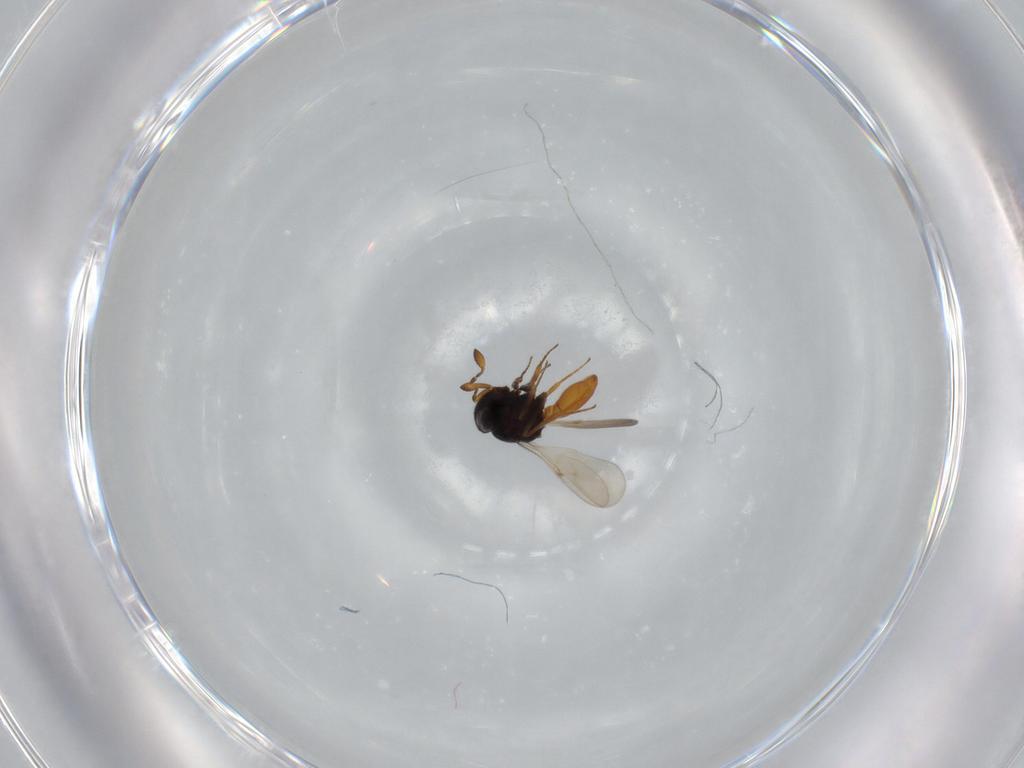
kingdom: Animalia
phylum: Arthropoda
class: Insecta
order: Hymenoptera
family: Scelionidae
